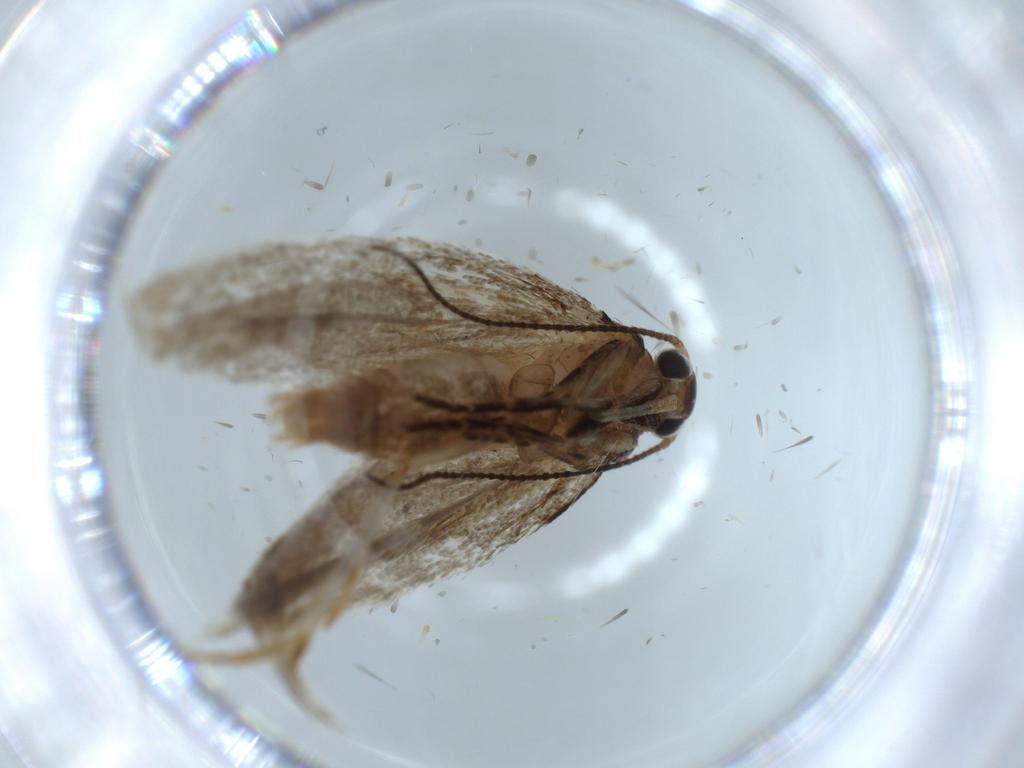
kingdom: Animalia
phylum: Arthropoda
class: Insecta
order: Lepidoptera
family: Oecophoridae
